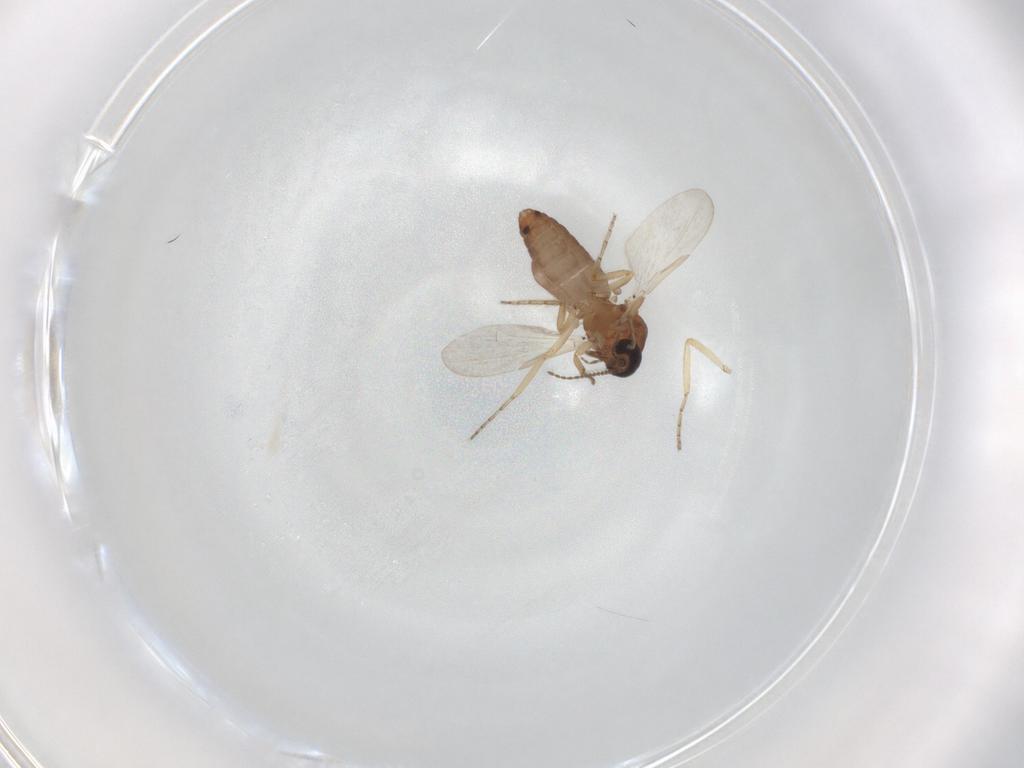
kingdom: Animalia
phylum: Arthropoda
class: Insecta
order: Diptera
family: Ceratopogonidae
